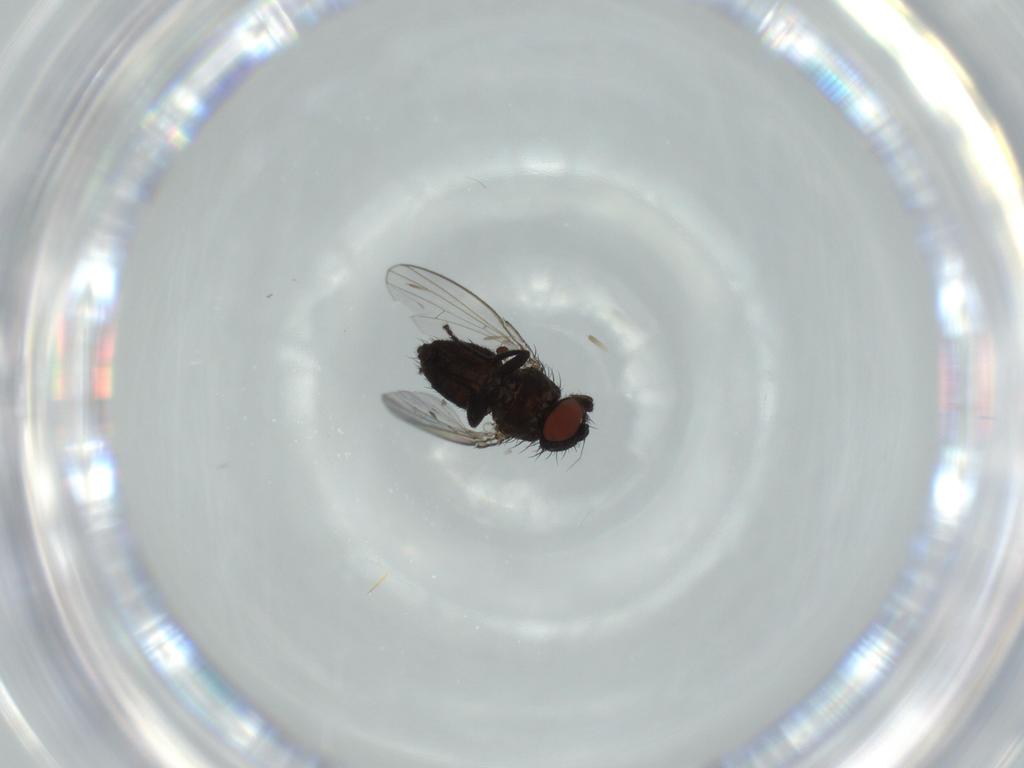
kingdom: Animalia
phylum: Arthropoda
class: Insecta
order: Diptera
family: Milichiidae
